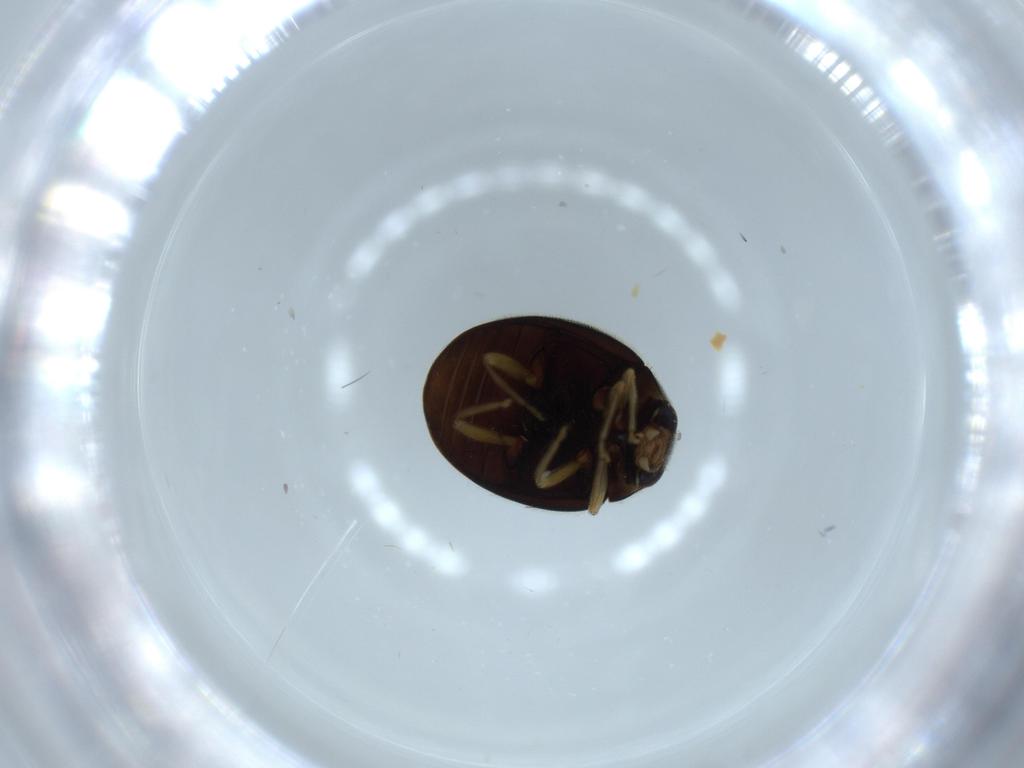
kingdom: Animalia
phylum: Arthropoda
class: Insecta
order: Coleoptera
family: Coccinellidae
